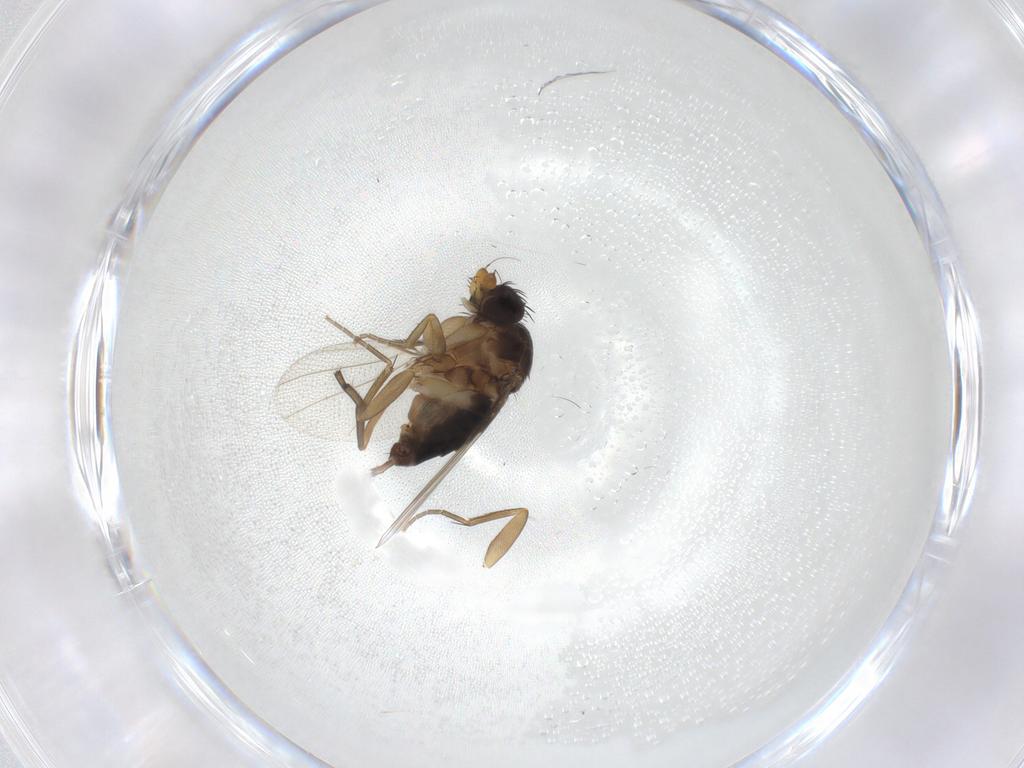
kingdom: Animalia
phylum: Arthropoda
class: Insecta
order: Diptera
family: Phoridae
